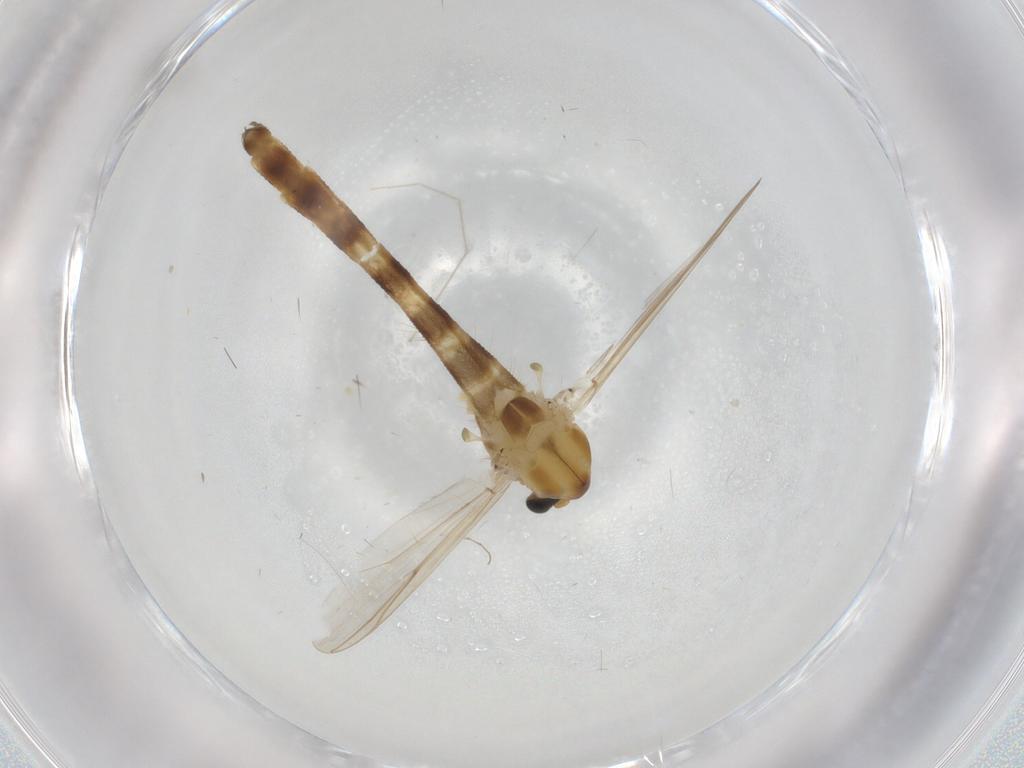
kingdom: Animalia
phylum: Arthropoda
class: Insecta
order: Diptera
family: Chironomidae
